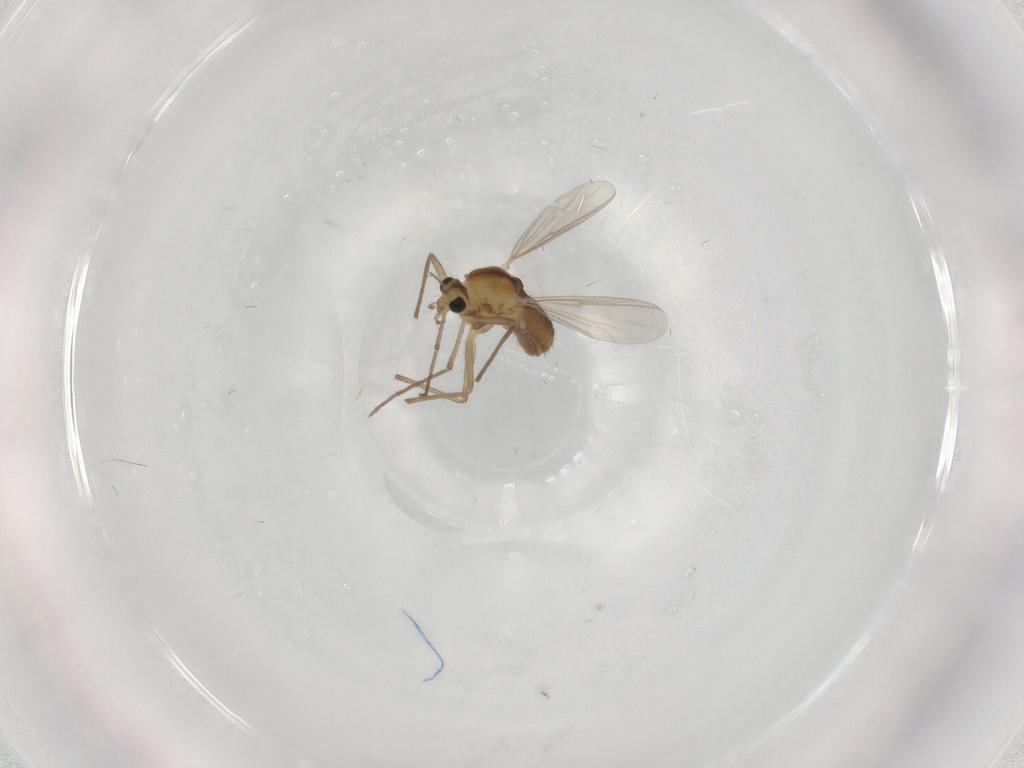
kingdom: Animalia
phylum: Arthropoda
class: Insecta
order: Diptera
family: Chironomidae
